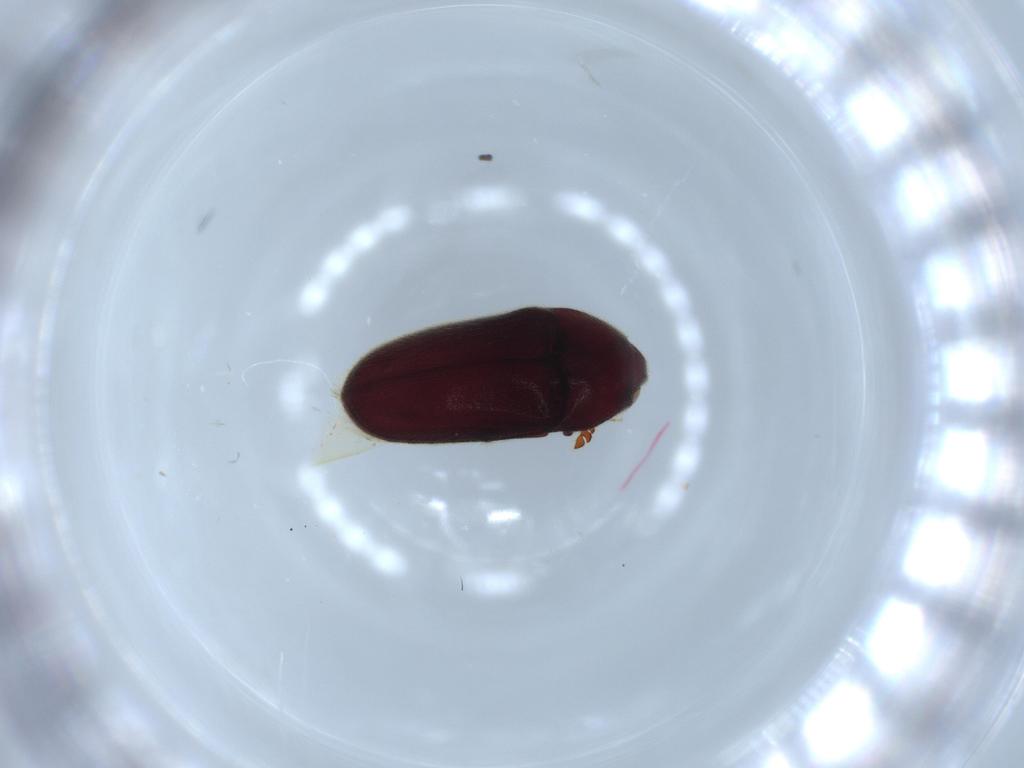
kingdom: Animalia
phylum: Arthropoda
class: Insecta
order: Coleoptera
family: Throscidae
